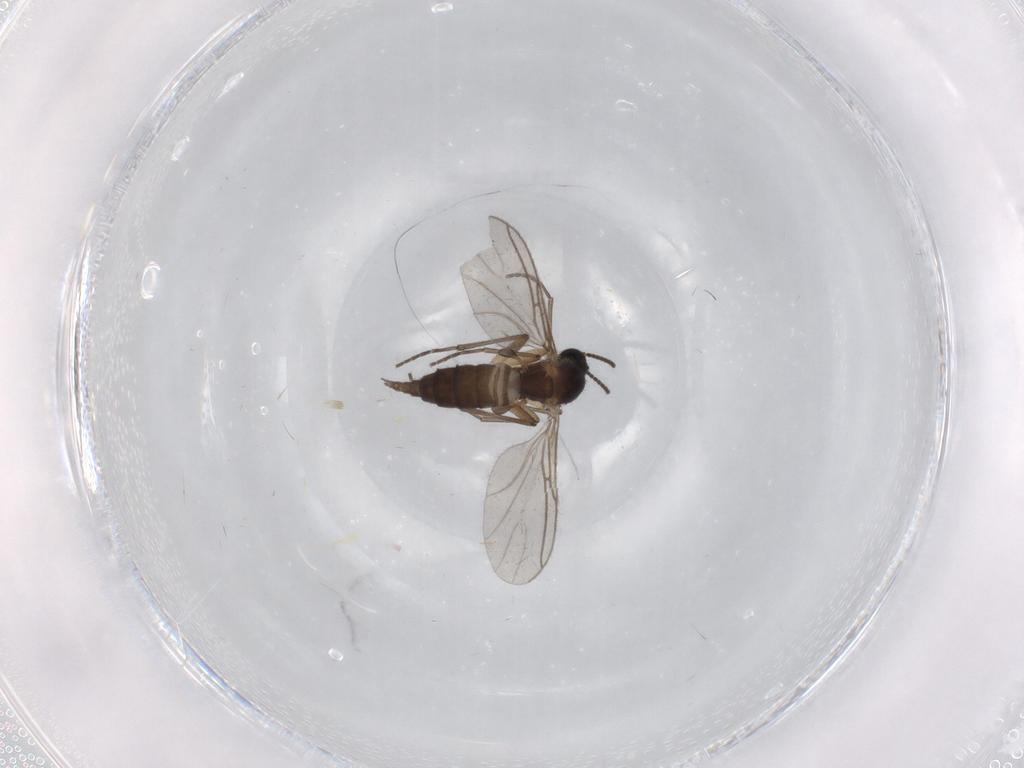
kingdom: Animalia
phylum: Arthropoda
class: Insecta
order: Diptera
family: Sciaridae
